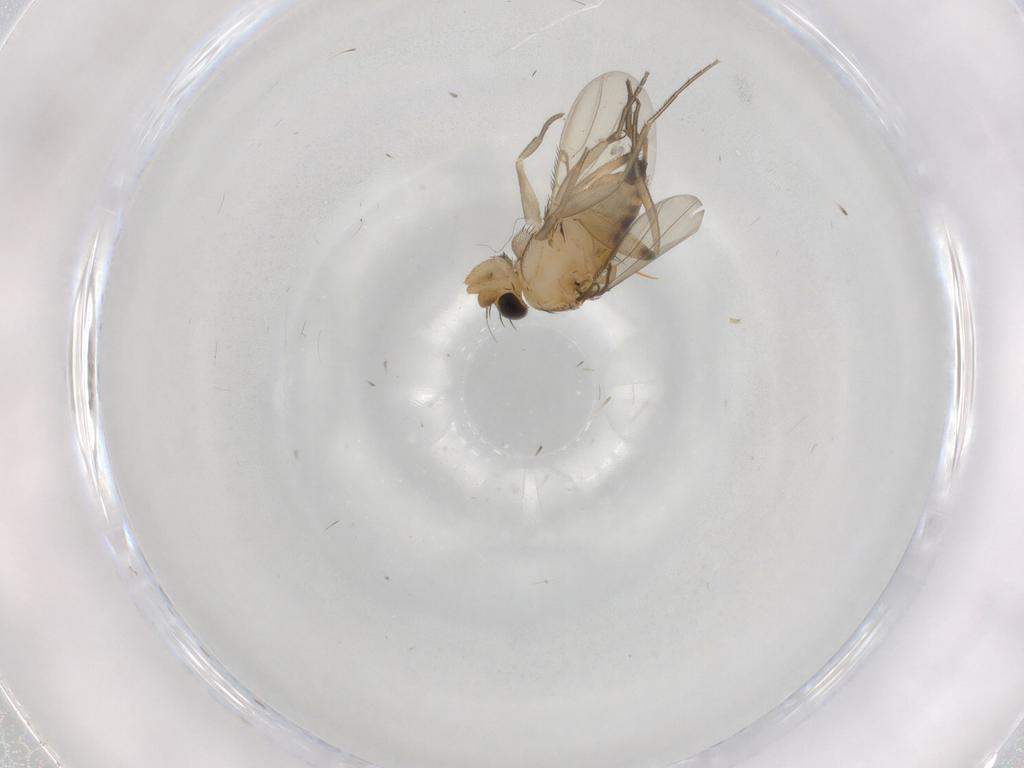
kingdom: Animalia
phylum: Arthropoda
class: Insecta
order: Diptera
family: Phoridae
